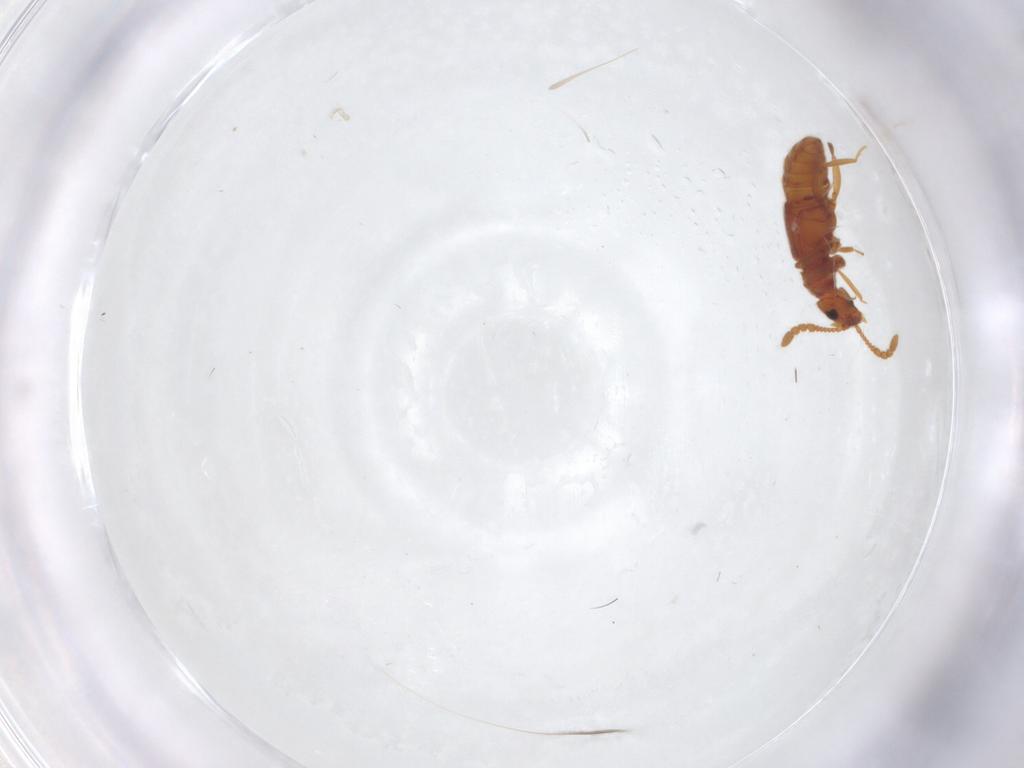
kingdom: Animalia
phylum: Arthropoda
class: Insecta
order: Coleoptera
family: Staphylinidae
